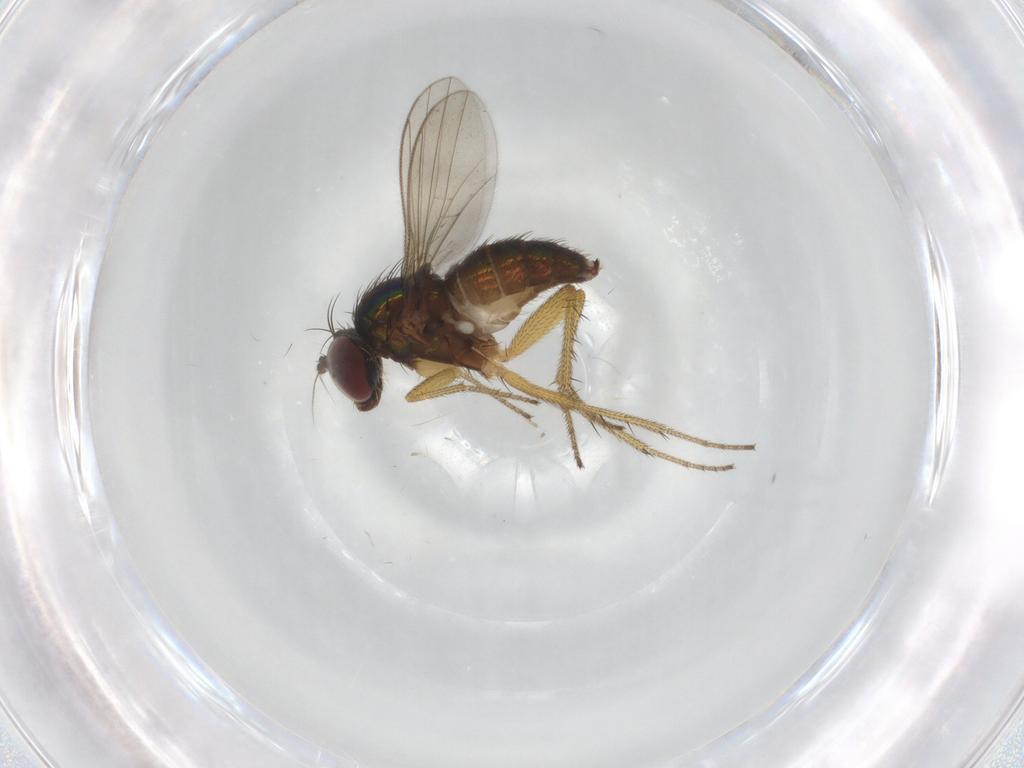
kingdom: Animalia
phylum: Arthropoda
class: Insecta
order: Diptera
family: Dolichopodidae
